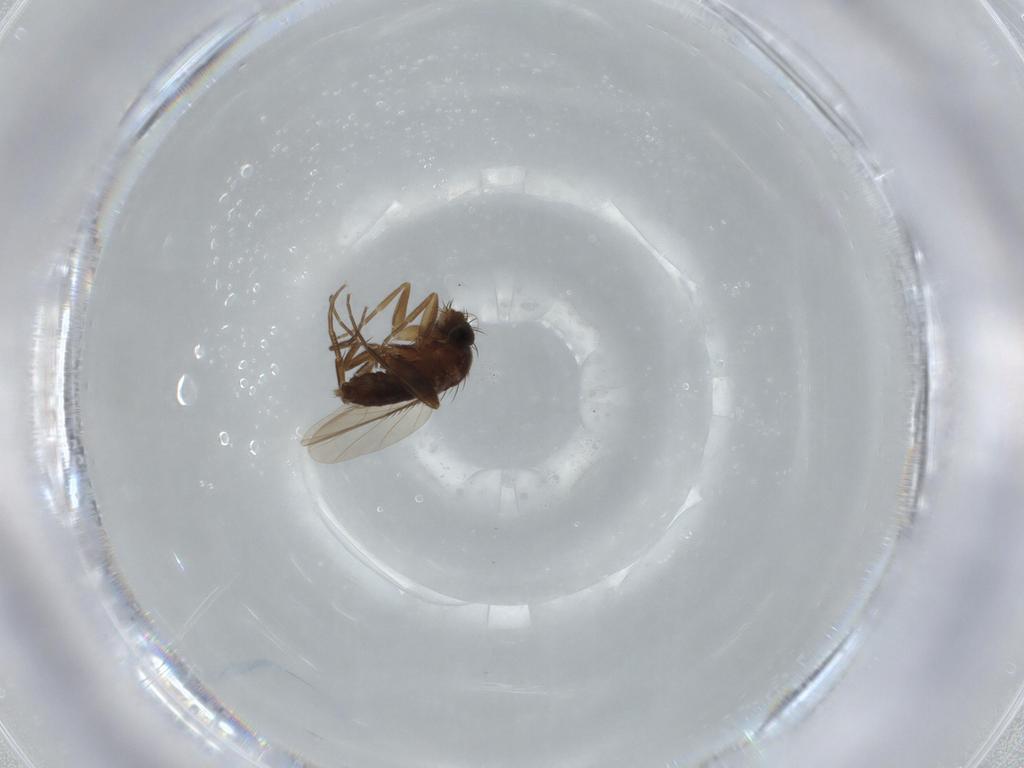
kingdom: Animalia
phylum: Arthropoda
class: Insecta
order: Diptera
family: Phoridae
